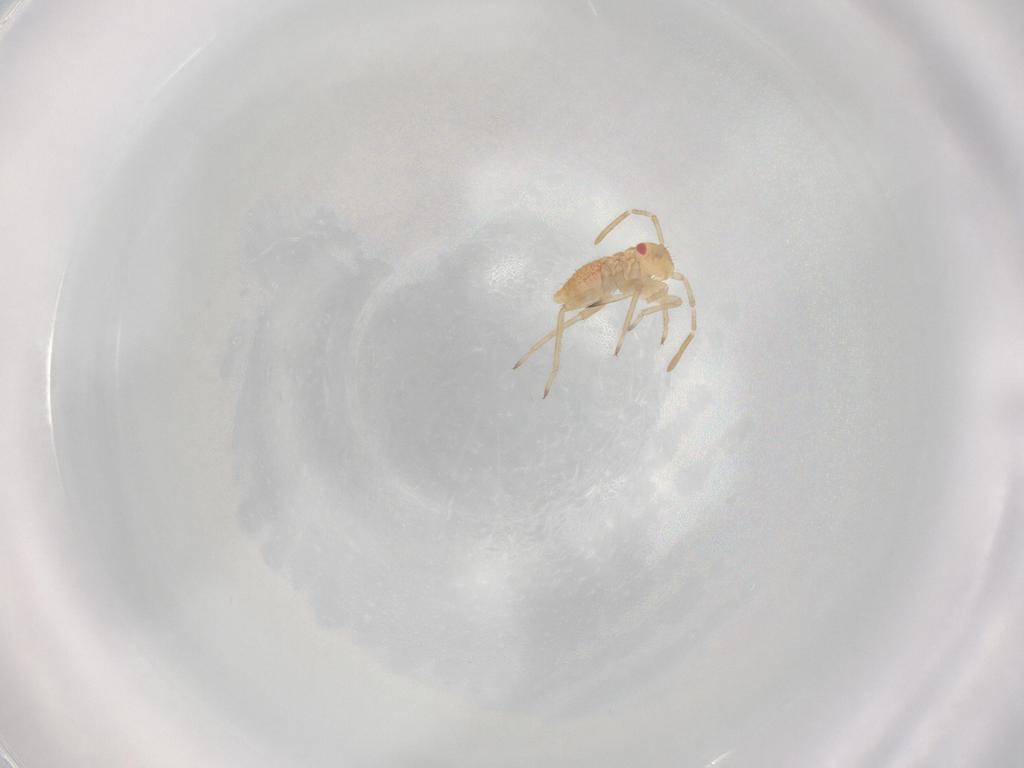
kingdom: Animalia
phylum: Arthropoda
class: Insecta
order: Hemiptera
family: Miridae
